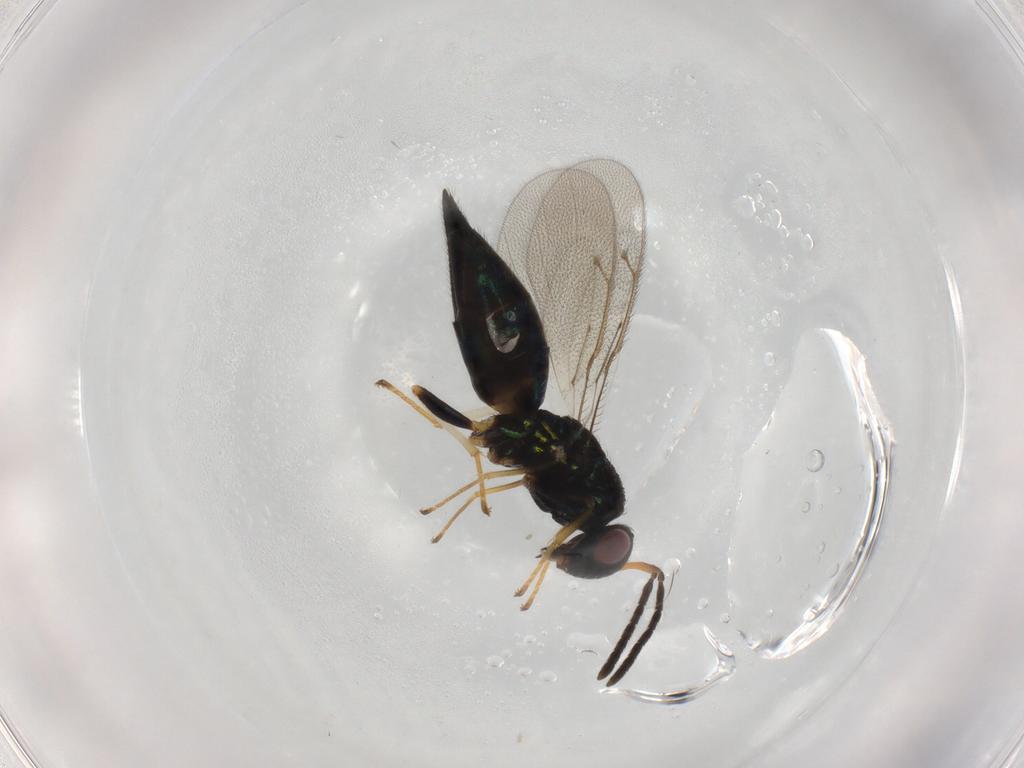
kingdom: Animalia
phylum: Arthropoda
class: Insecta
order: Hymenoptera
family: Pteromalidae
